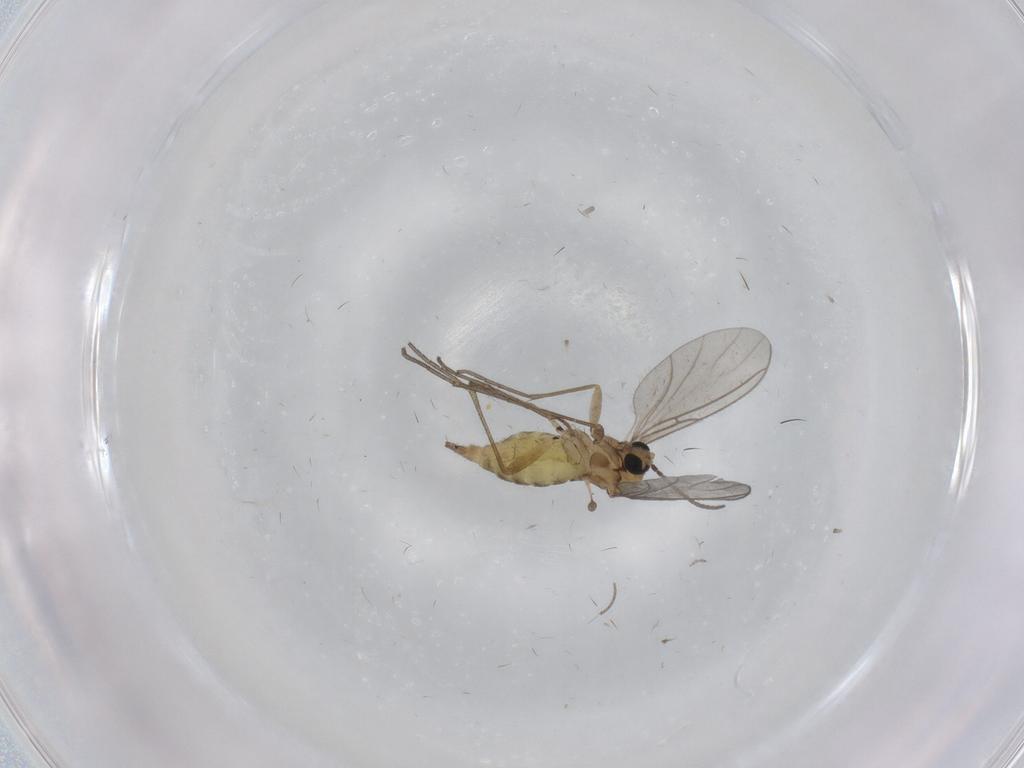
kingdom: Animalia
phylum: Arthropoda
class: Insecta
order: Diptera
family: Sciaridae
